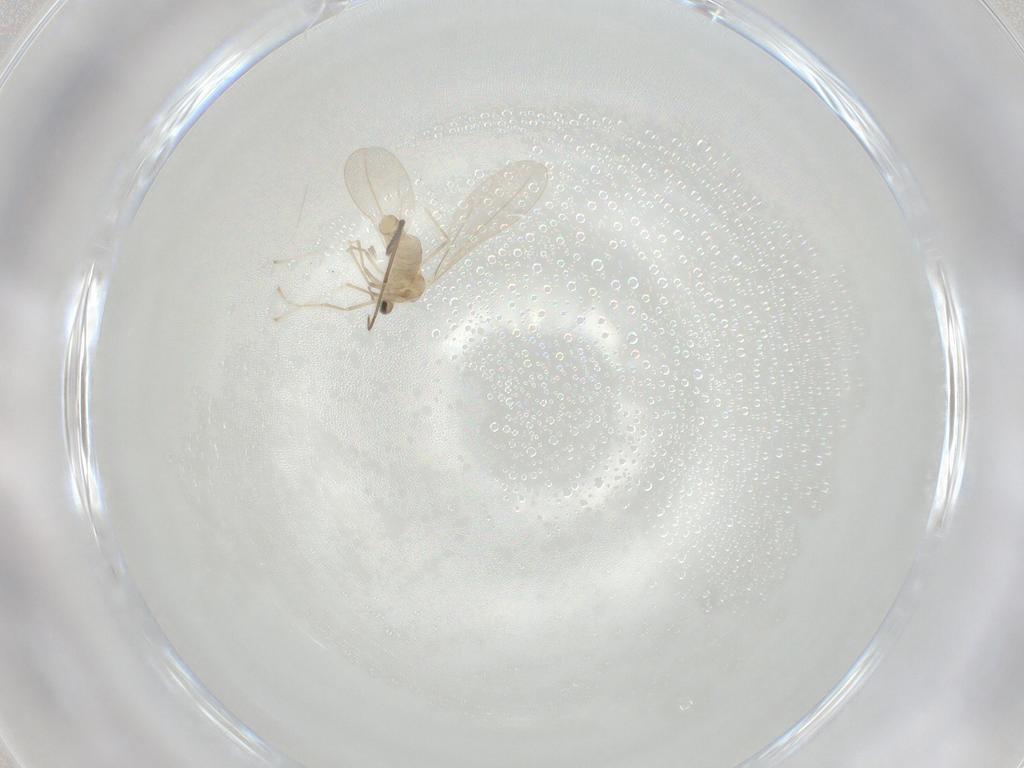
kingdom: Animalia
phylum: Arthropoda
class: Insecta
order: Diptera
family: Cecidomyiidae
